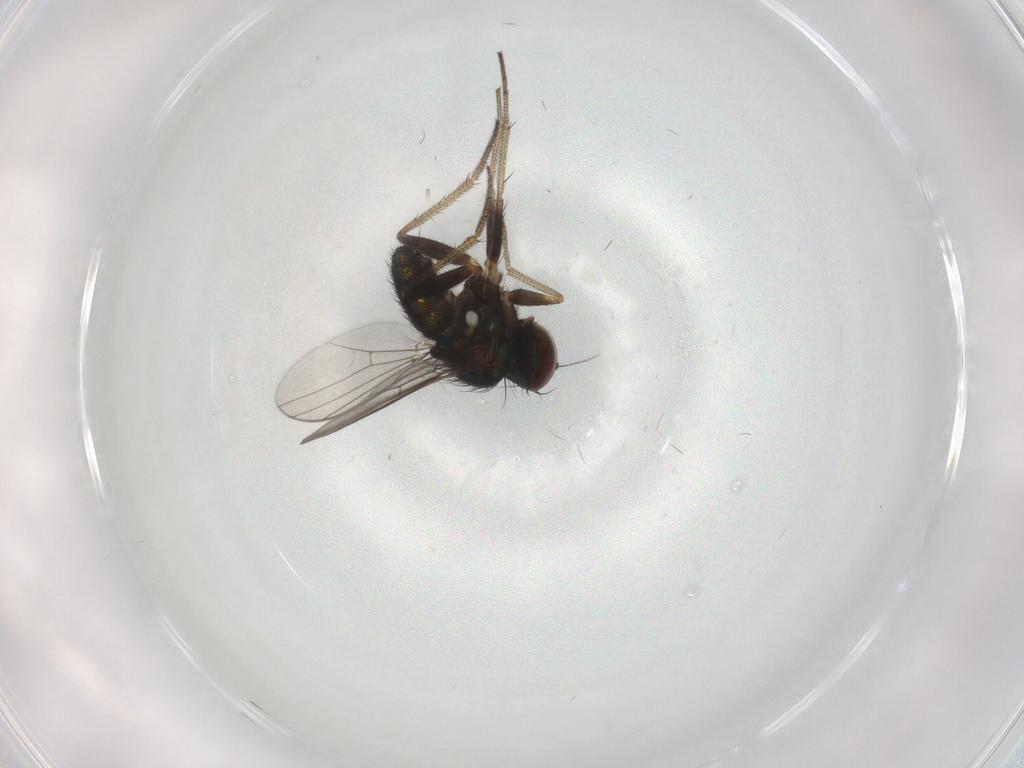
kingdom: Animalia
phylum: Arthropoda
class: Insecta
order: Diptera
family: Dolichopodidae
